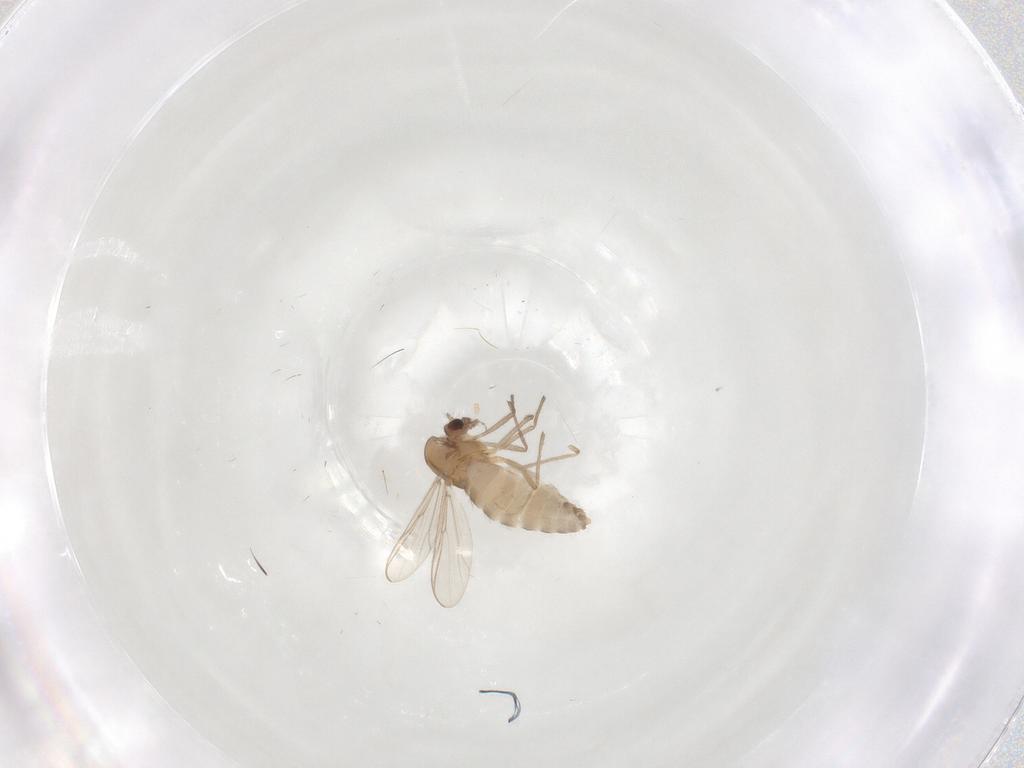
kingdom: Animalia
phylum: Arthropoda
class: Insecta
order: Diptera
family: Chironomidae
